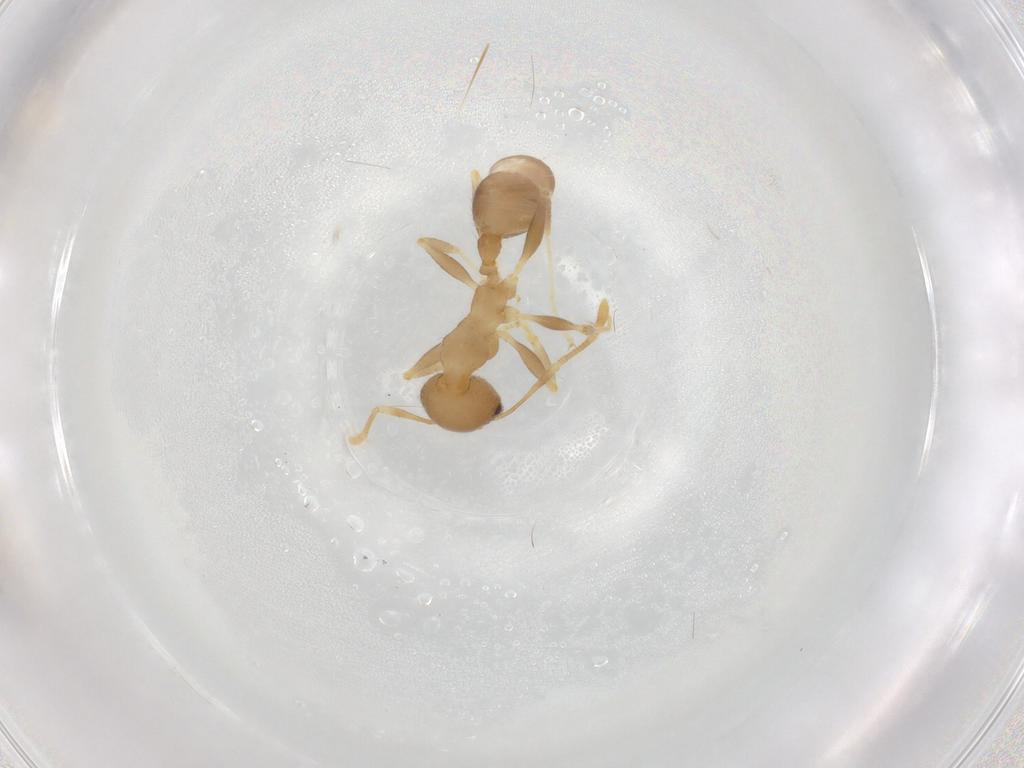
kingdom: Animalia
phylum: Arthropoda
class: Insecta
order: Hymenoptera
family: Formicidae
